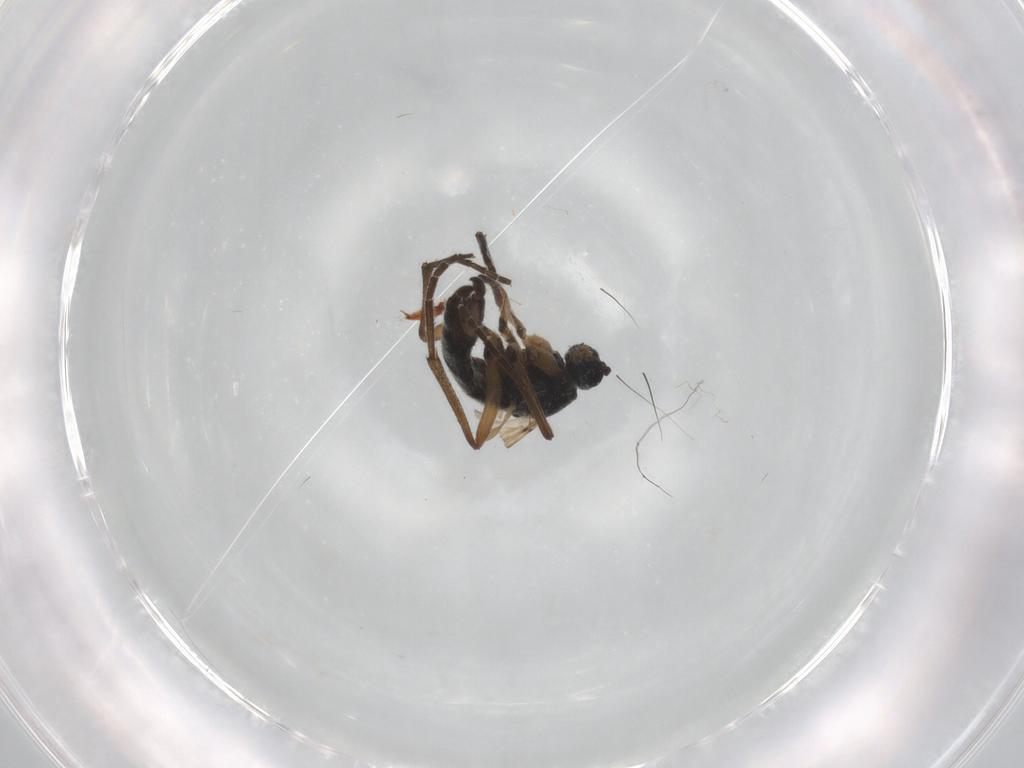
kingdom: Animalia
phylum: Arthropoda
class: Insecta
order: Diptera
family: Chironomidae
